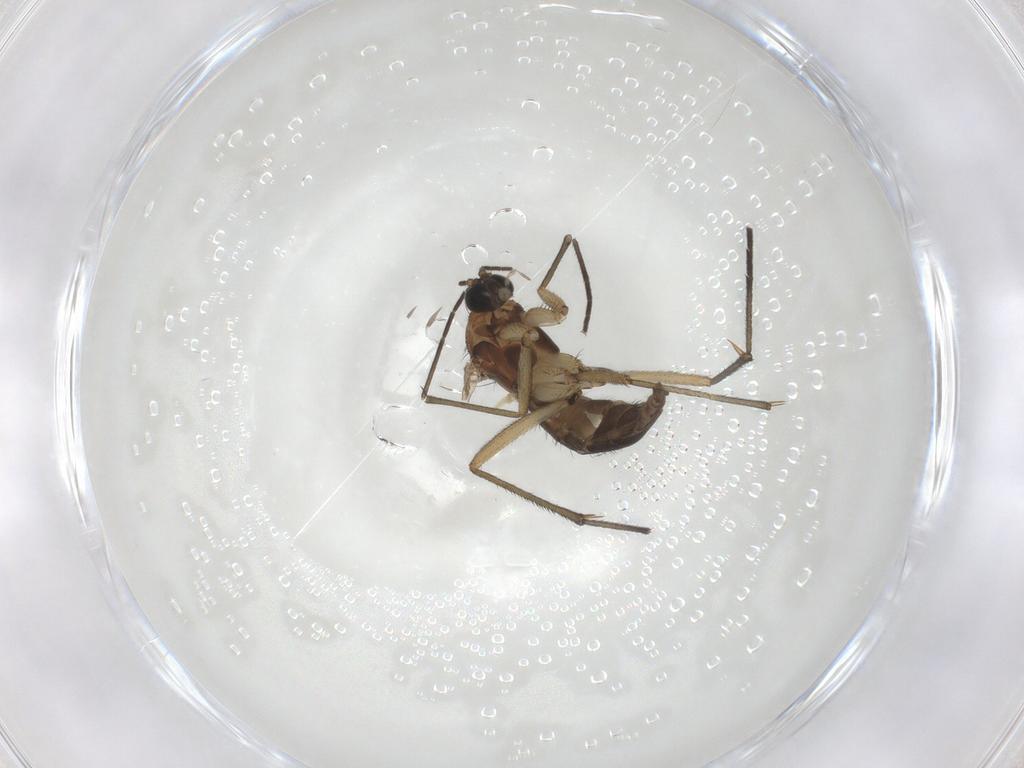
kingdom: Animalia
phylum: Arthropoda
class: Insecta
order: Diptera
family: Sciaridae
